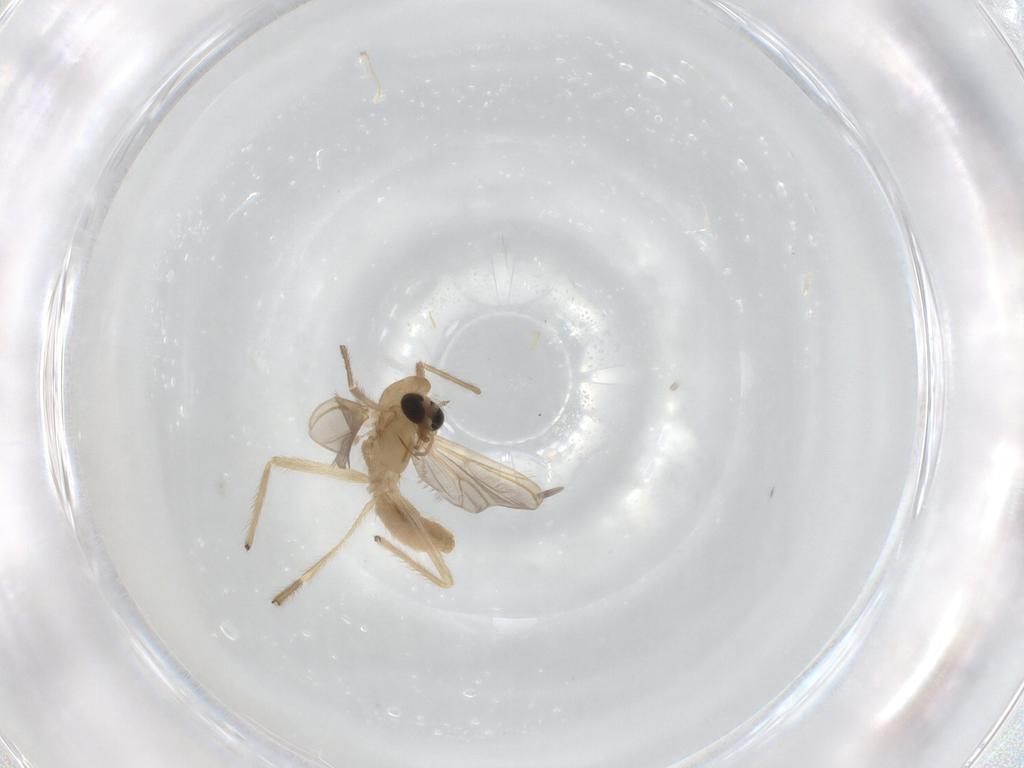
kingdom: Animalia
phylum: Arthropoda
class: Insecta
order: Diptera
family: Chironomidae
